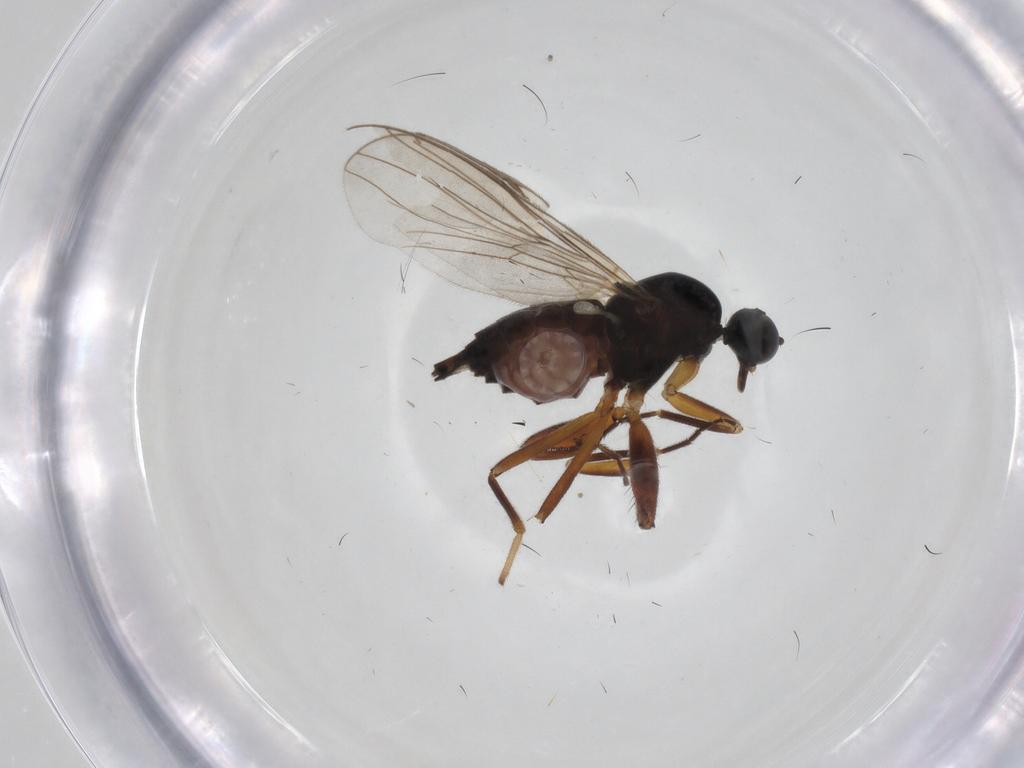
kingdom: Animalia
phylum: Arthropoda
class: Insecta
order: Diptera
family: Hybotidae
